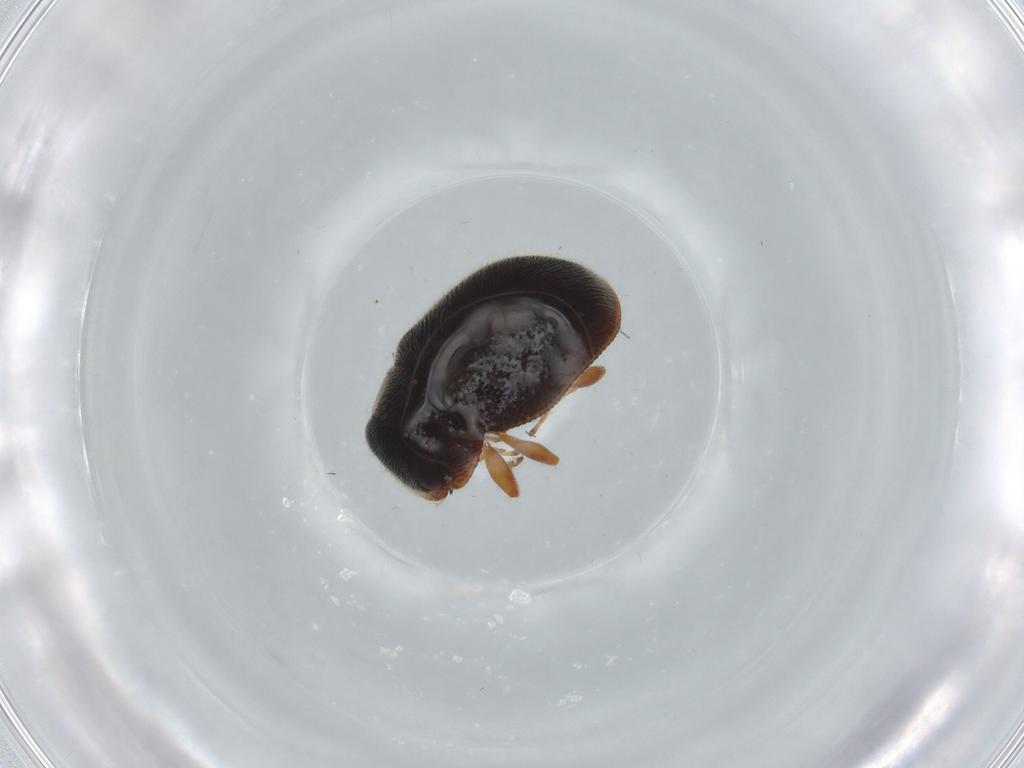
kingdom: Animalia
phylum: Arthropoda
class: Insecta
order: Coleoptera
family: Coccinellidae
